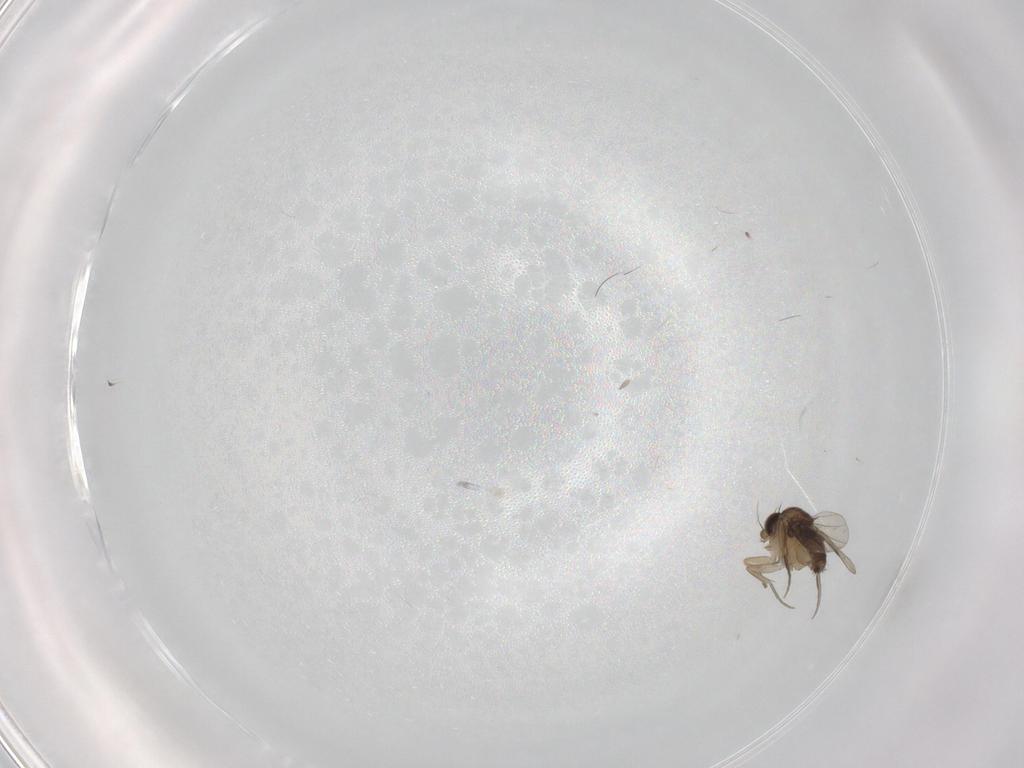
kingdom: Animalia
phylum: Arthropoda
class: Insecta
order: Diptera
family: Phoridae
